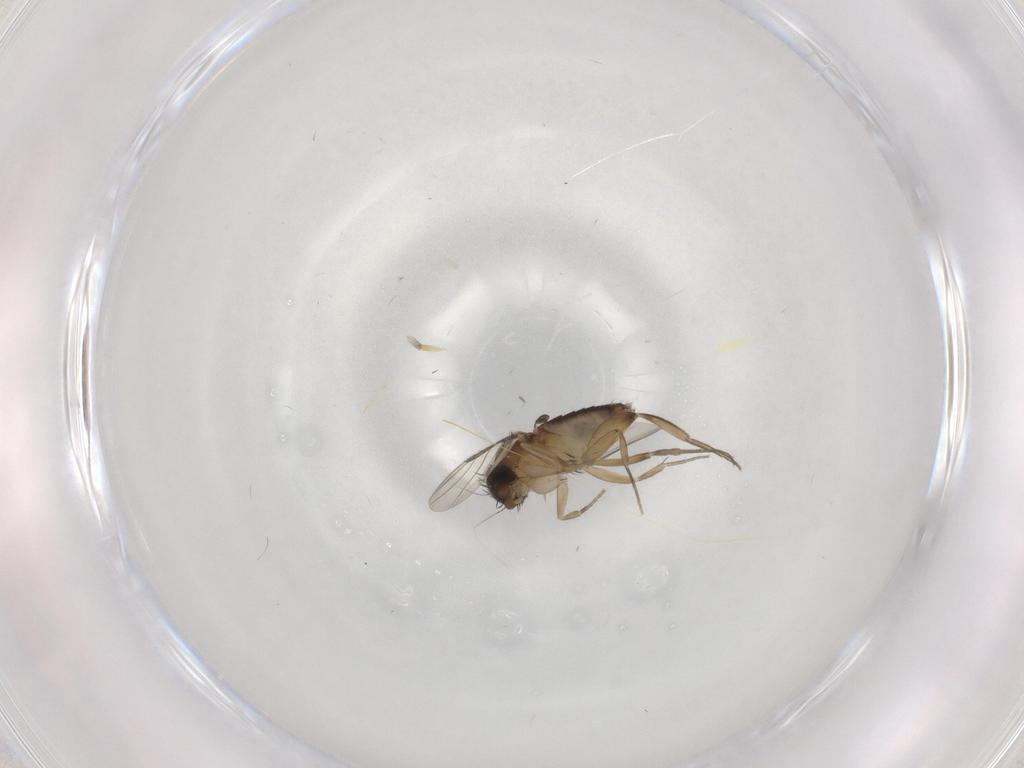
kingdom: Animalia
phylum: Arthropoda
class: Insecta
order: Diptera
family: Phoridae
